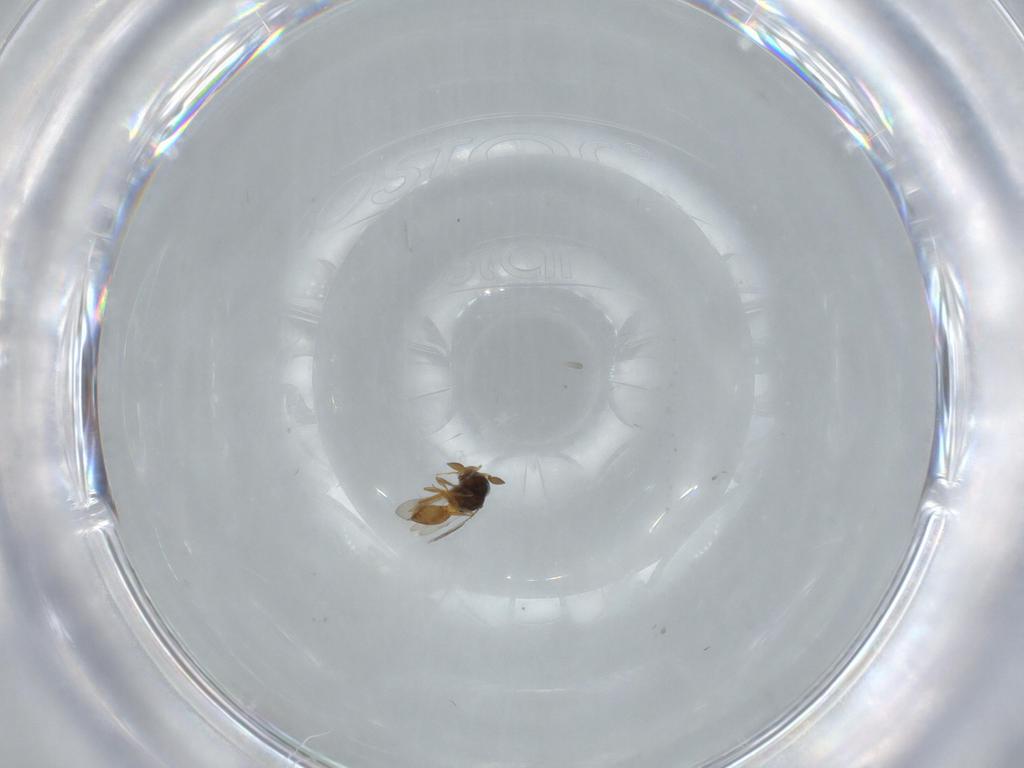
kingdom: Animalia
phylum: Arthropoda
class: Insecta
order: Hymenoptera
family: Scelionidae
